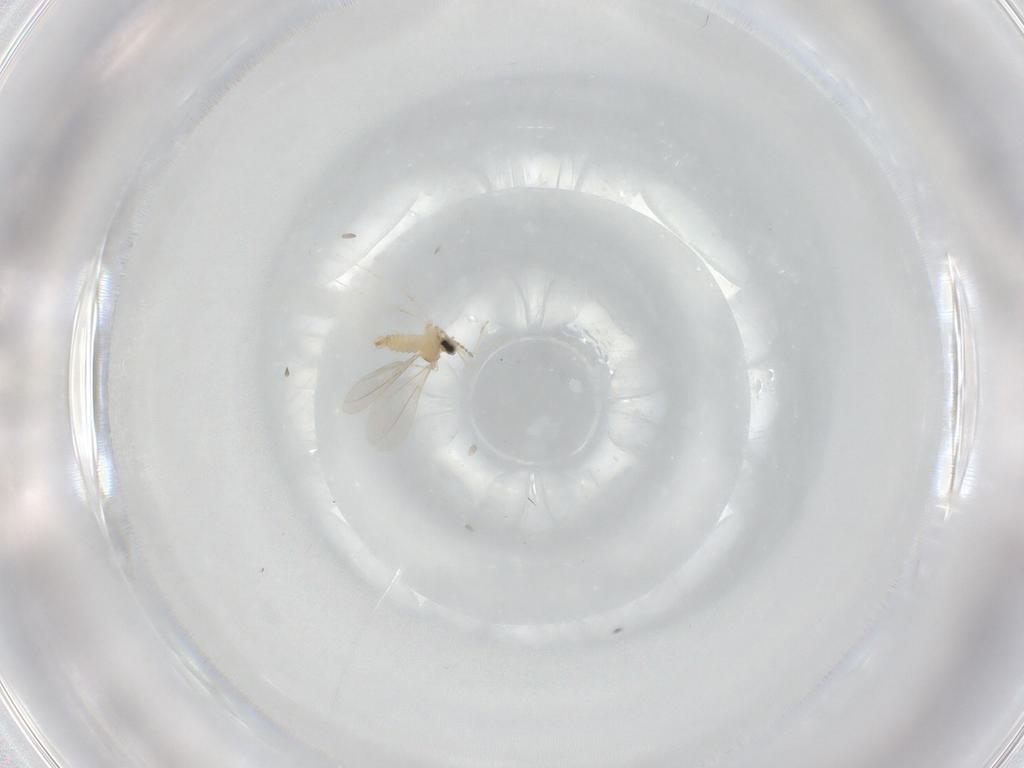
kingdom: Animalia
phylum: Arthropoda
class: Insecta
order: Diptera
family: Cecidomyiidae
